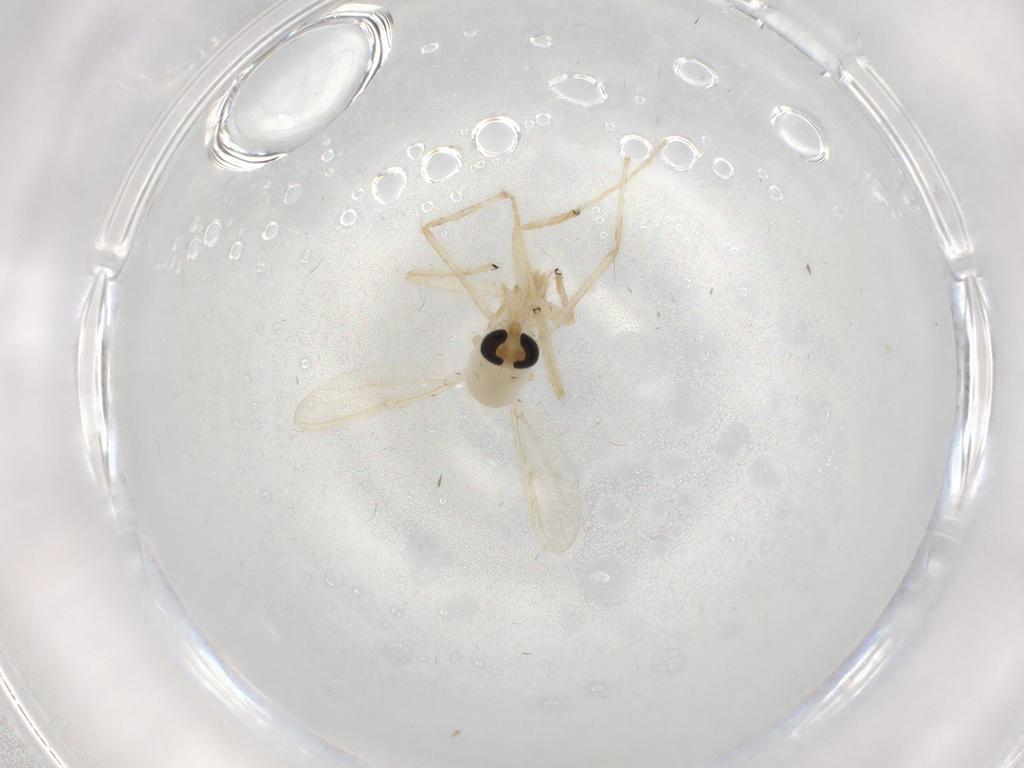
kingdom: Animalia
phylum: Arthropoda
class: Insecta
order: Diptera
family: Chironomidae
